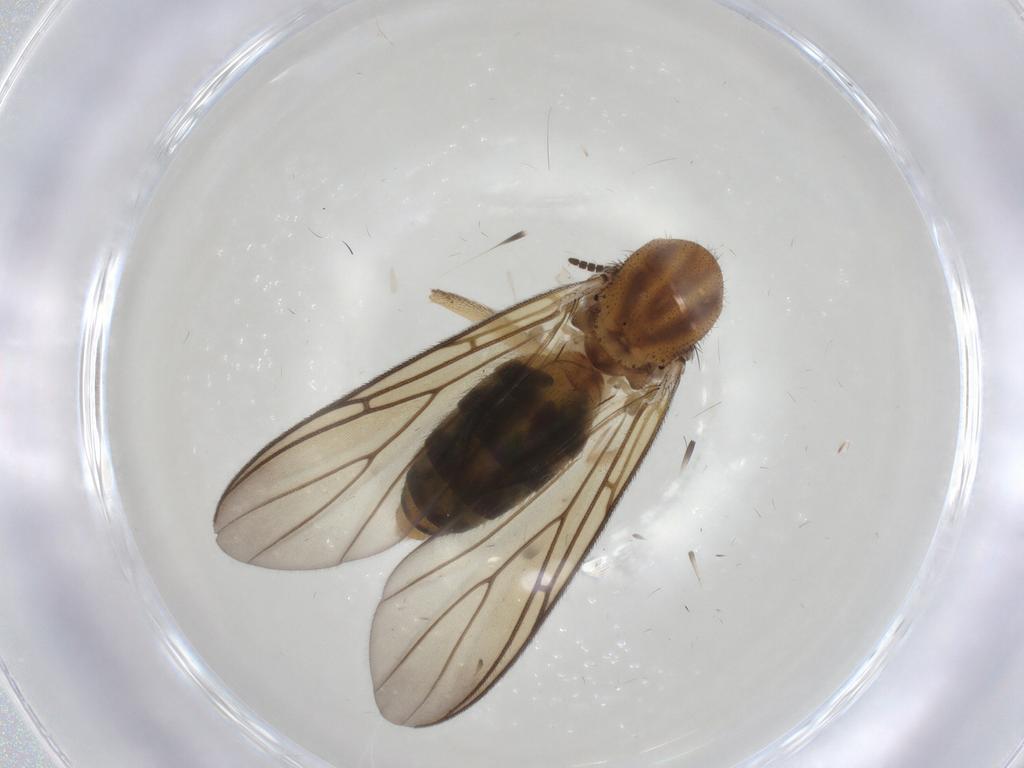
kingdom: Animalia
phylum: Arthropoda
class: Insecta
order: Diptera
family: Mycetophilidae
